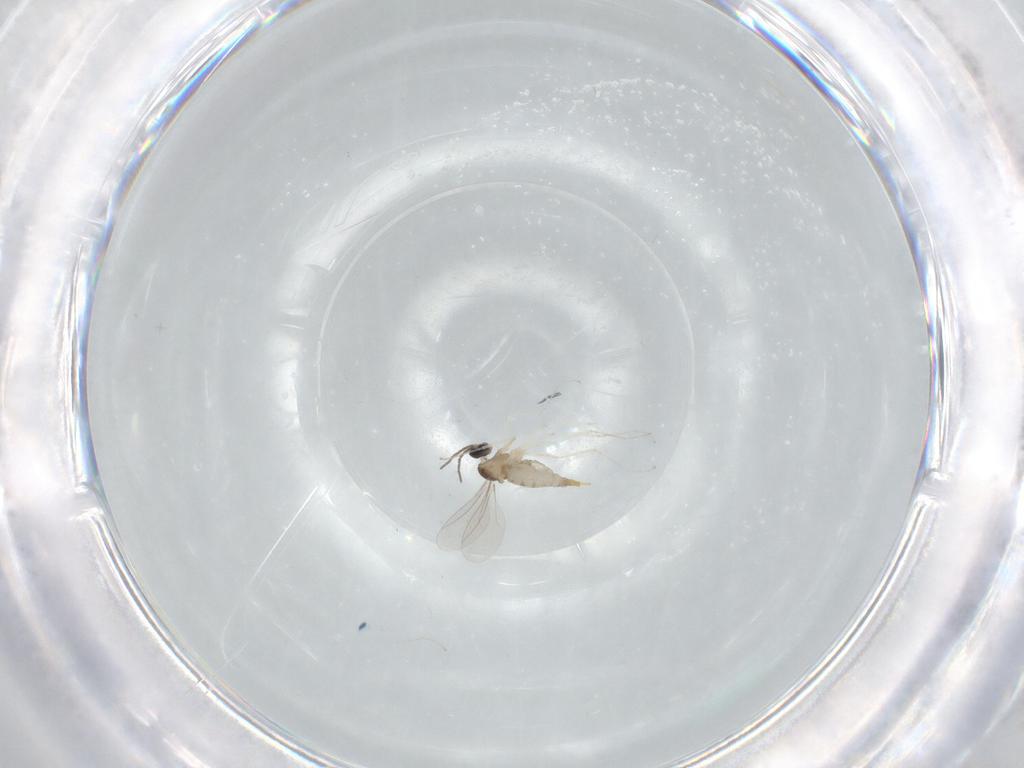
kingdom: Animalia
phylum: Arthropoda
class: Insecta
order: Diptera
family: Cecidomyiidae
